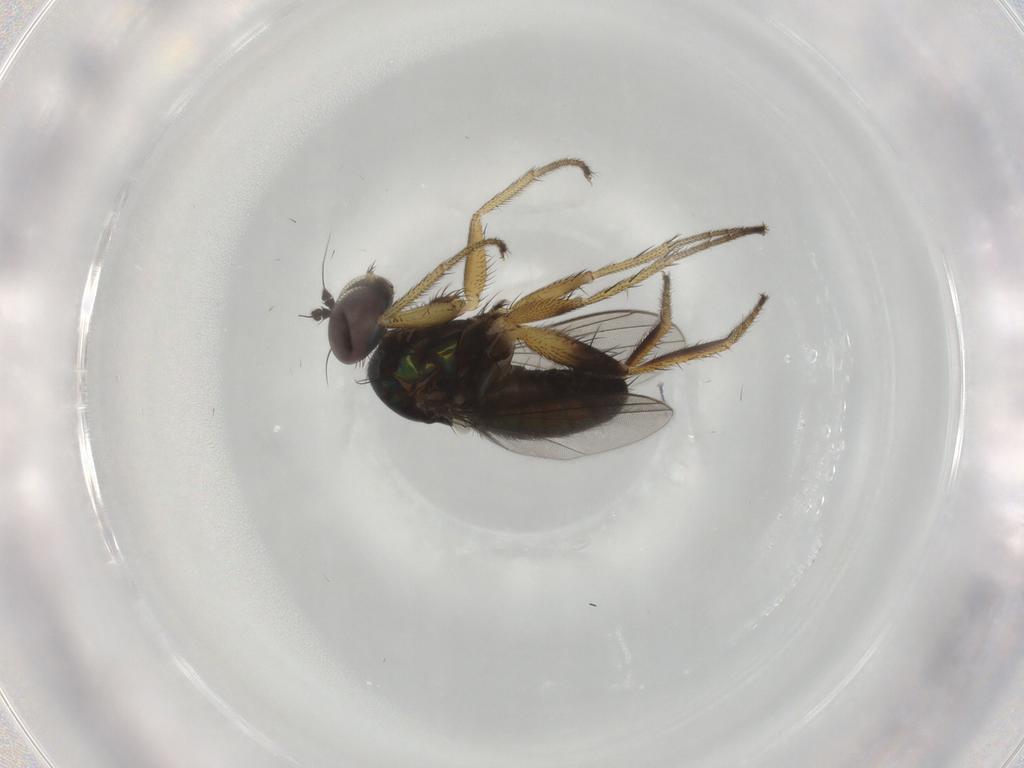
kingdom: Animalia
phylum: Arthropoda
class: Insecta
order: Diptera
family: Dolichopodidae
